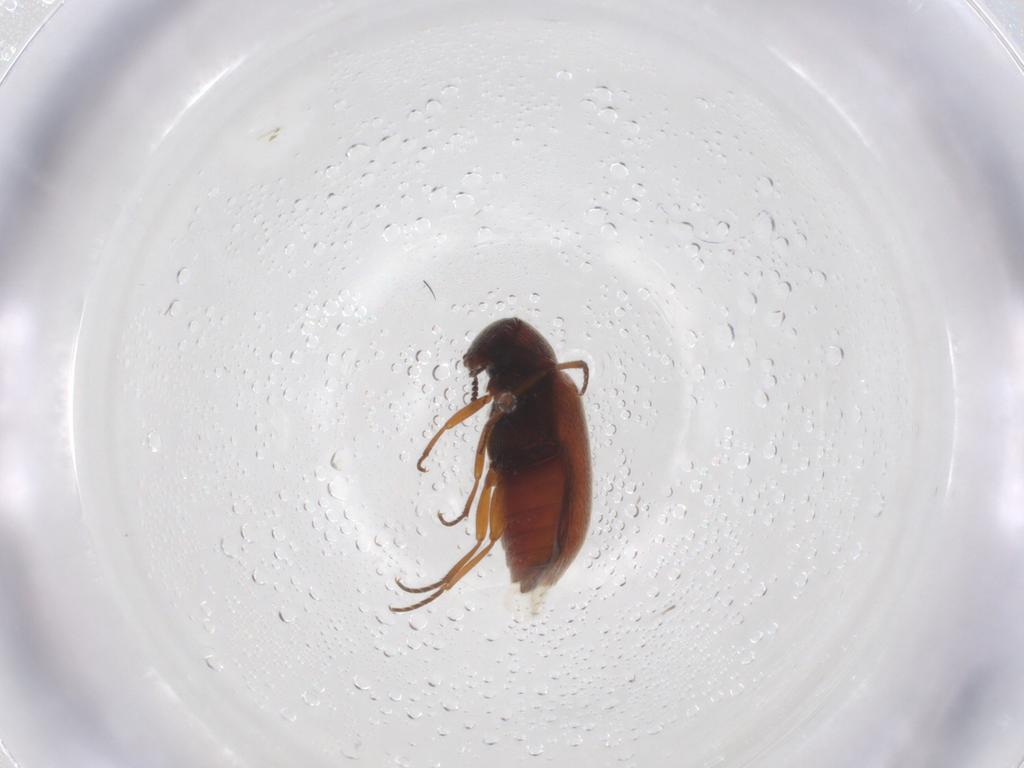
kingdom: Animalia
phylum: Arthropoda
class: Insecta
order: Coleoptera
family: Rhadalidae
